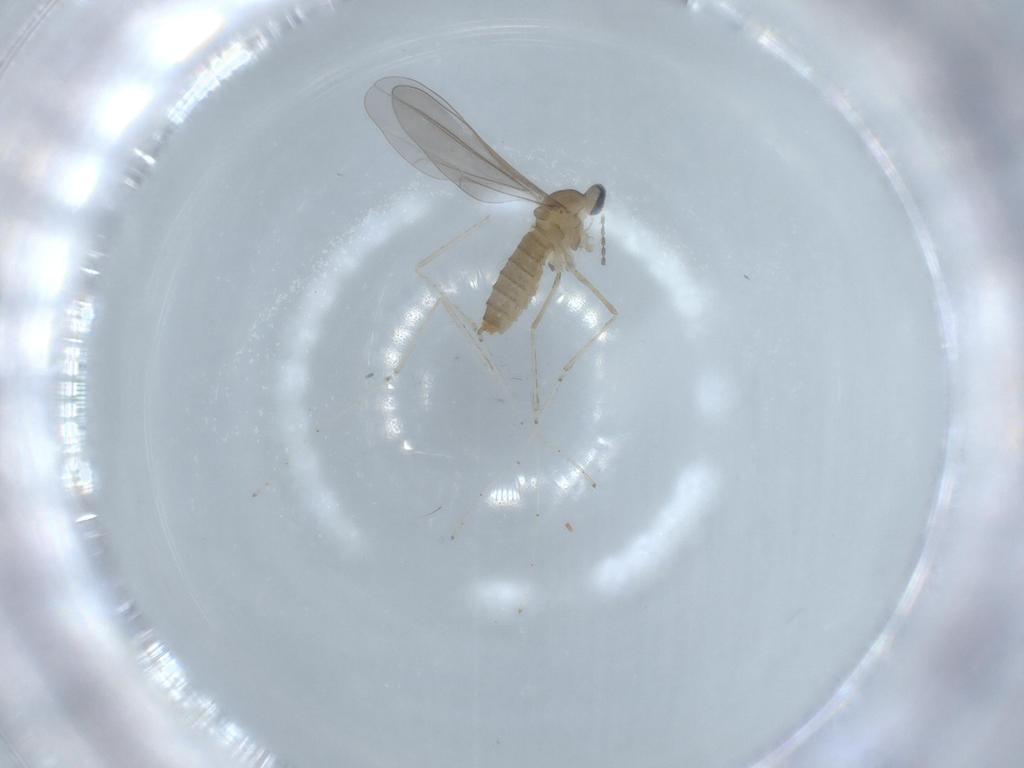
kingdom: Animalia
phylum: Arthropoda
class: Insecta
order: Diptera
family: Cecidomyiidae
